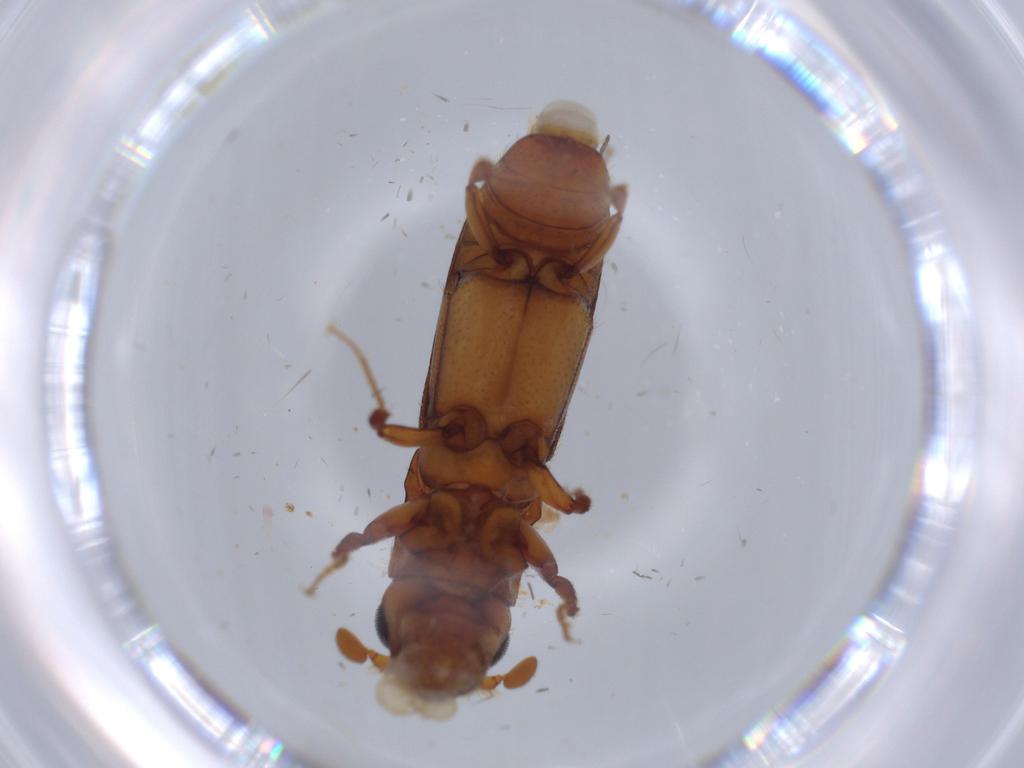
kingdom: Animalia
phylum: Arthropoda
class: Insecta
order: Coleoptera
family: Curculionidae
